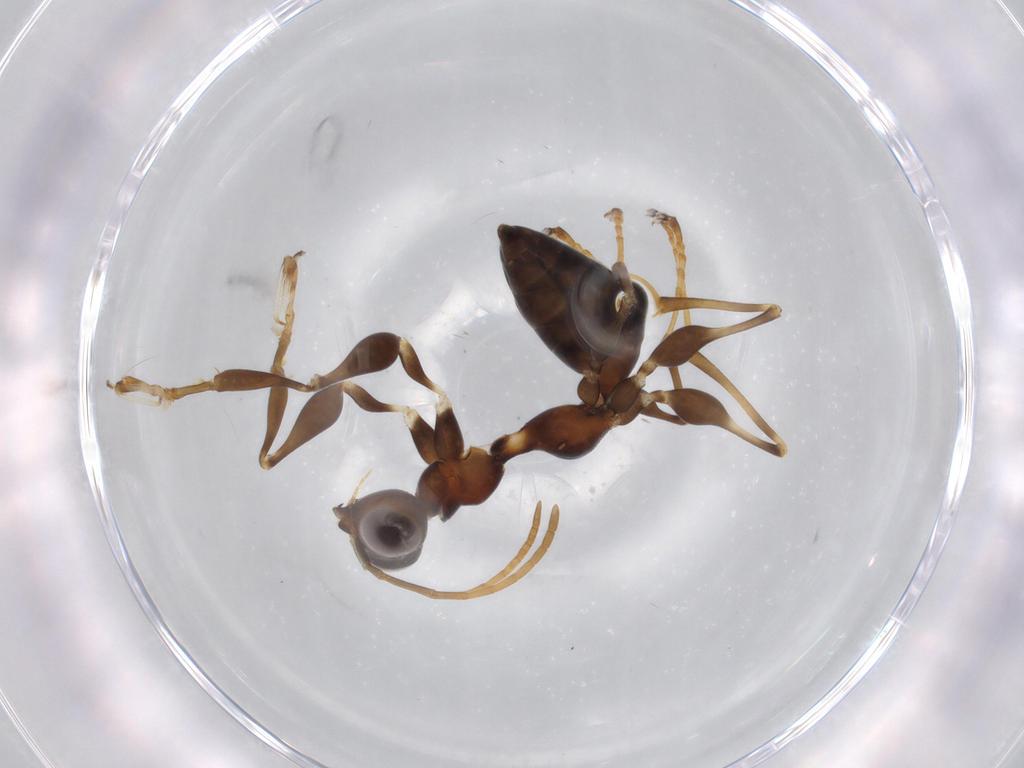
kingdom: Animalia
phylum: Arthropoda
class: Insecta
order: Hymenoptera
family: Dryinidae
